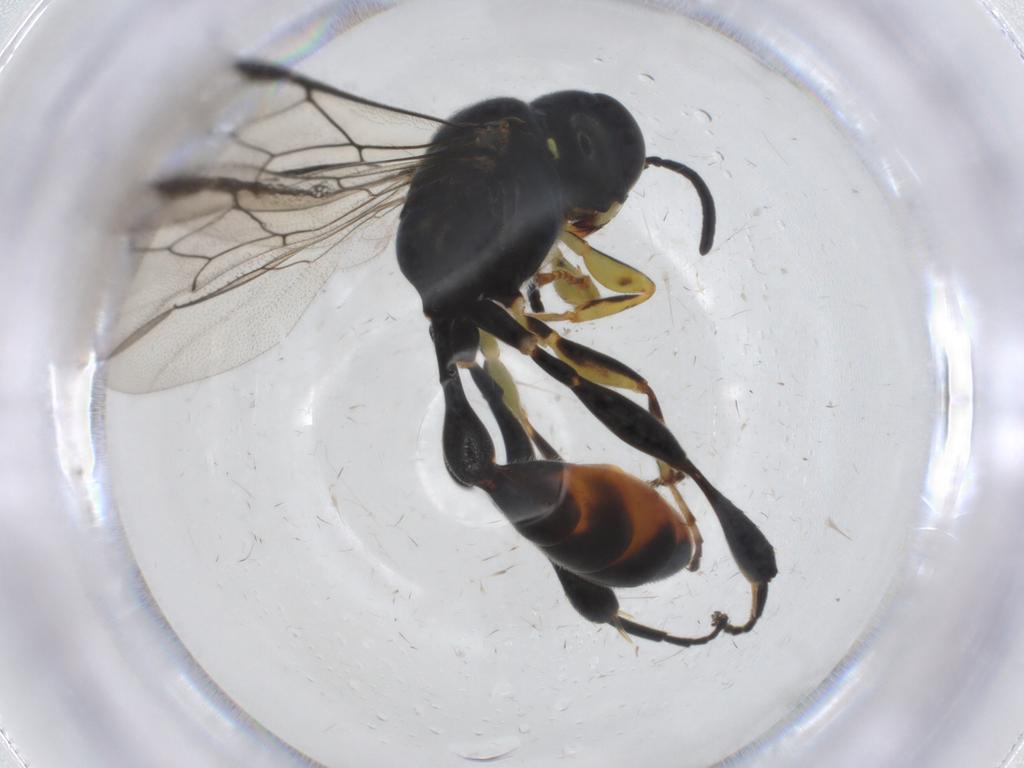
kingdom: Animalia
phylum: Arthropoda
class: Insecta
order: Hymenoptera
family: Crabronidae
